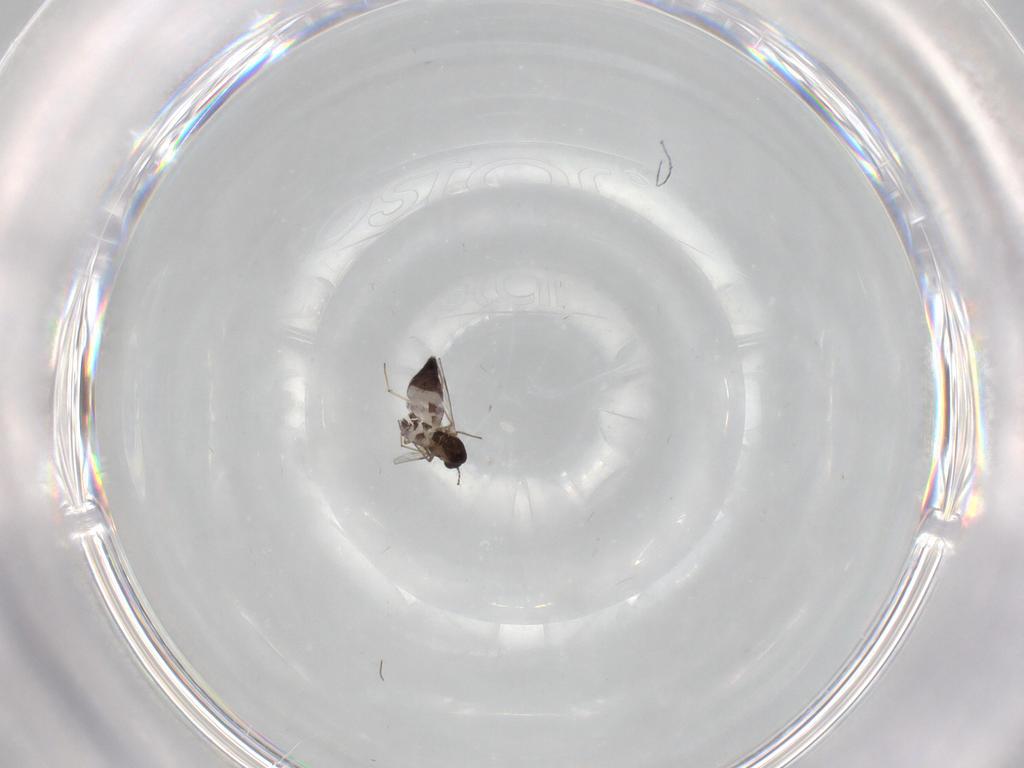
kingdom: Animalia
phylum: Arthropoda
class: Insecta
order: Diptera
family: Chironomidae
